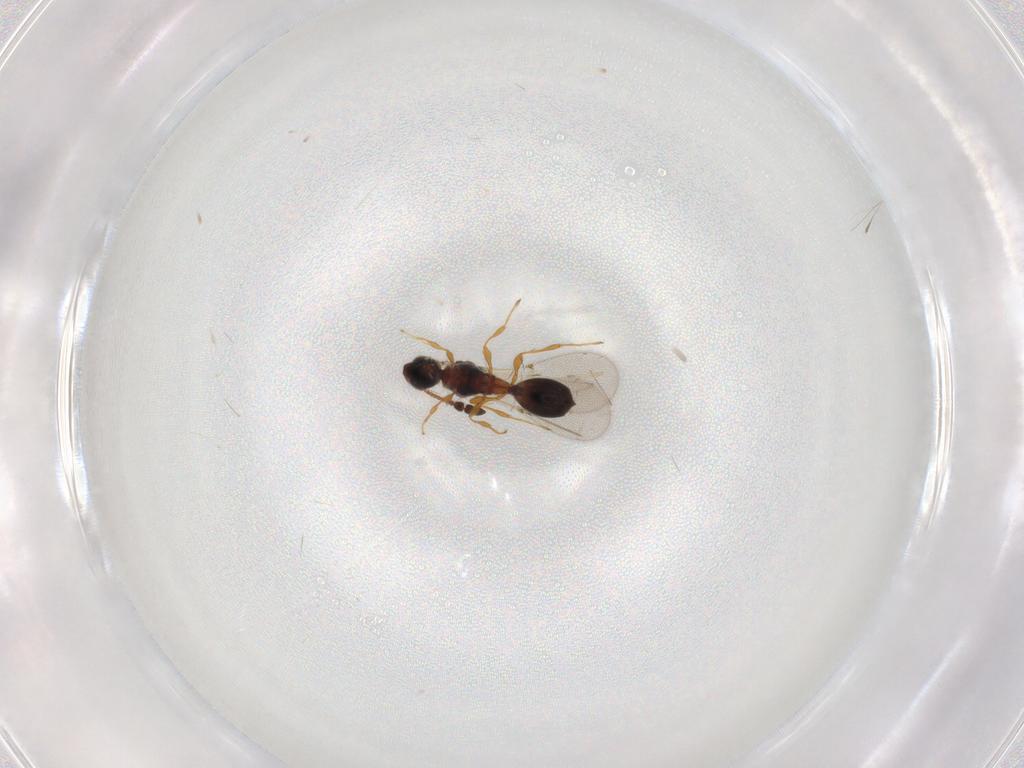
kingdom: Animalia
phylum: Arthropoda
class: Insecta
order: Hymenoptera
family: Diapriidae
